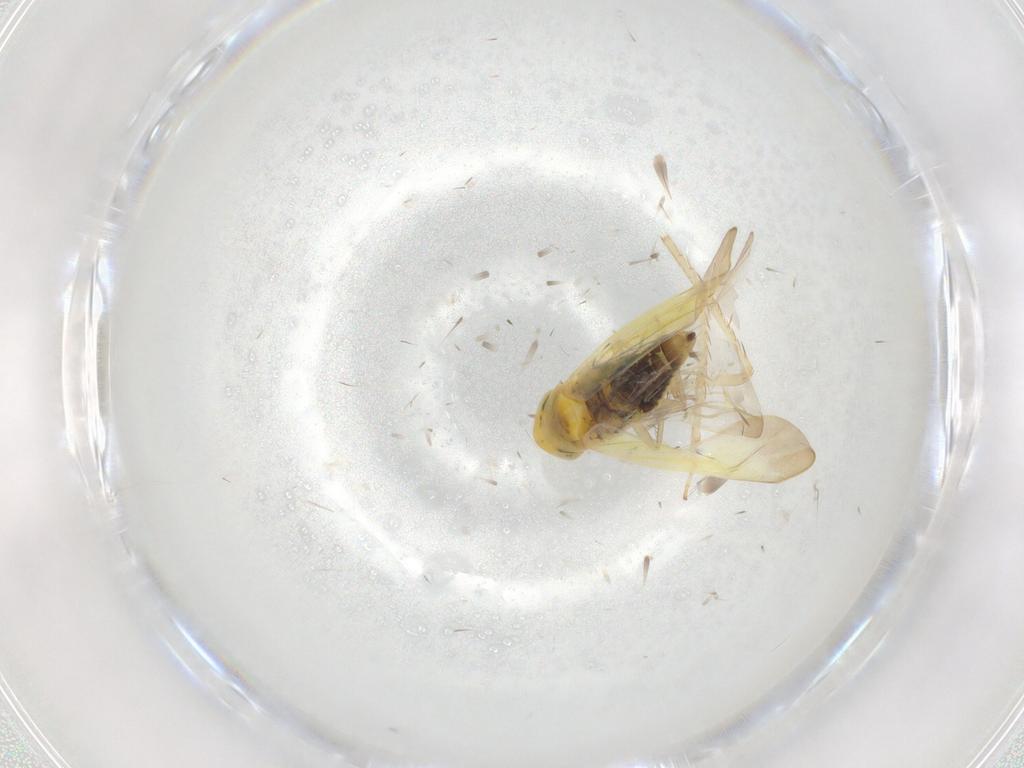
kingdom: Animalia
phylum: Arthropoda
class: Insecta
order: Hemiptera
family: Cicadellidae
